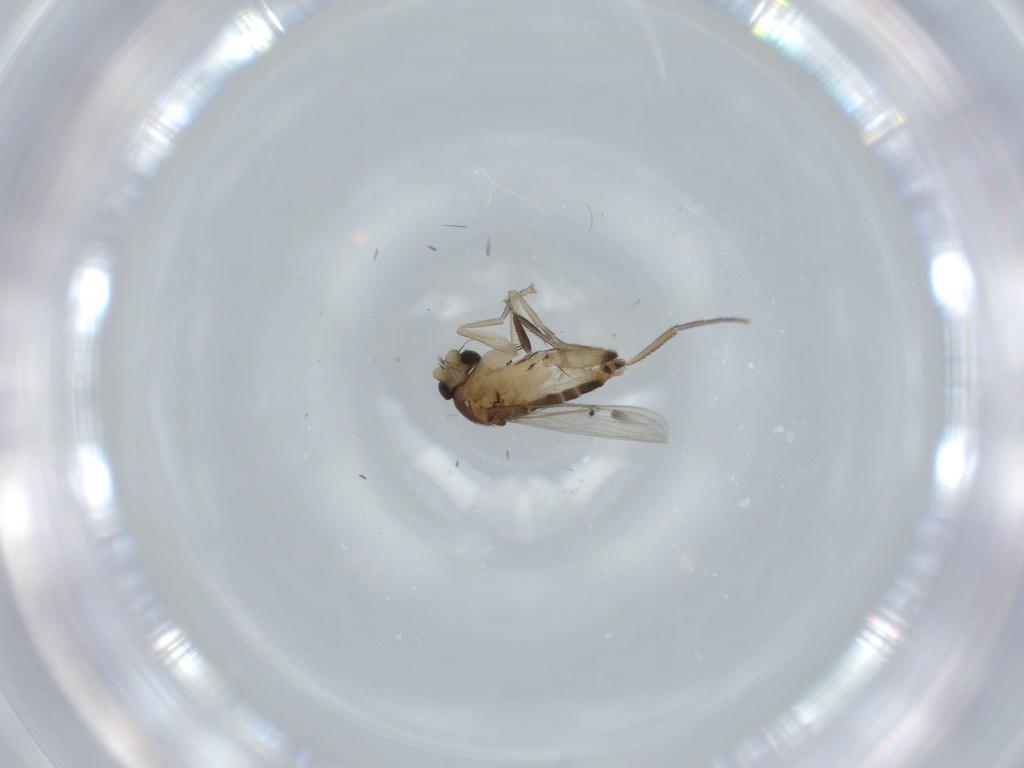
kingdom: Animalia
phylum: Arthropoda
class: Insecta
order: Diptera
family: Phoridae
